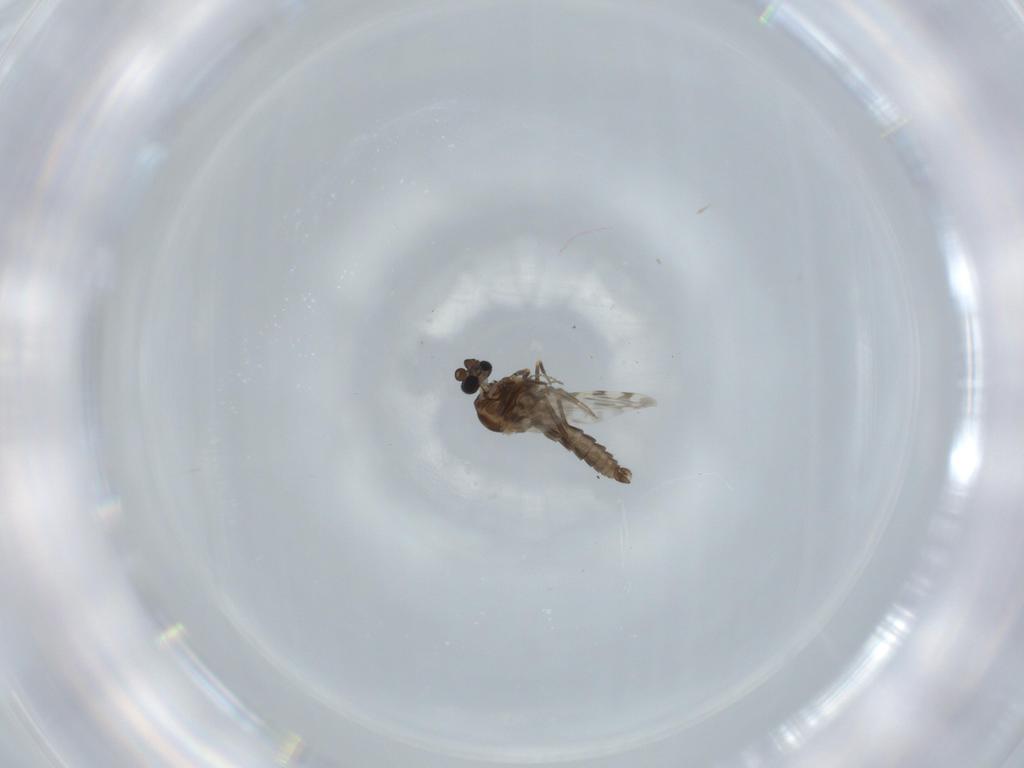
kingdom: Animalia
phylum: Arthropoda
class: Insecta
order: Diptera
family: Ceratopogonidae
